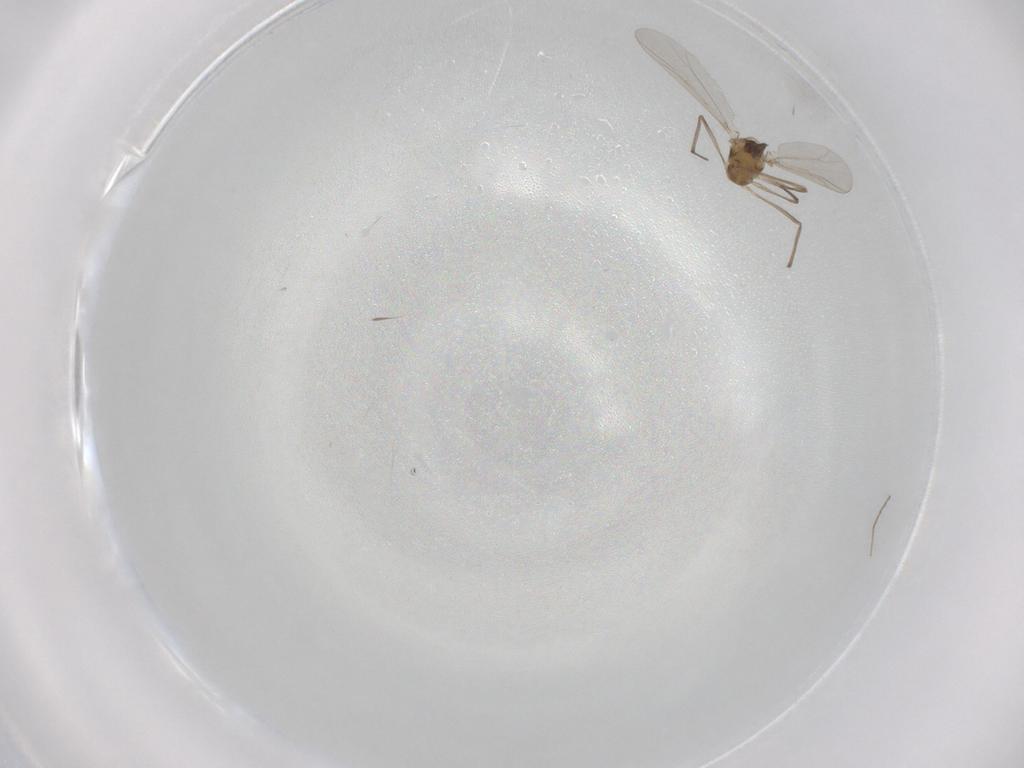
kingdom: Animalia
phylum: Arthropoda
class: Insecta
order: Diptera
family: Chironomidae
